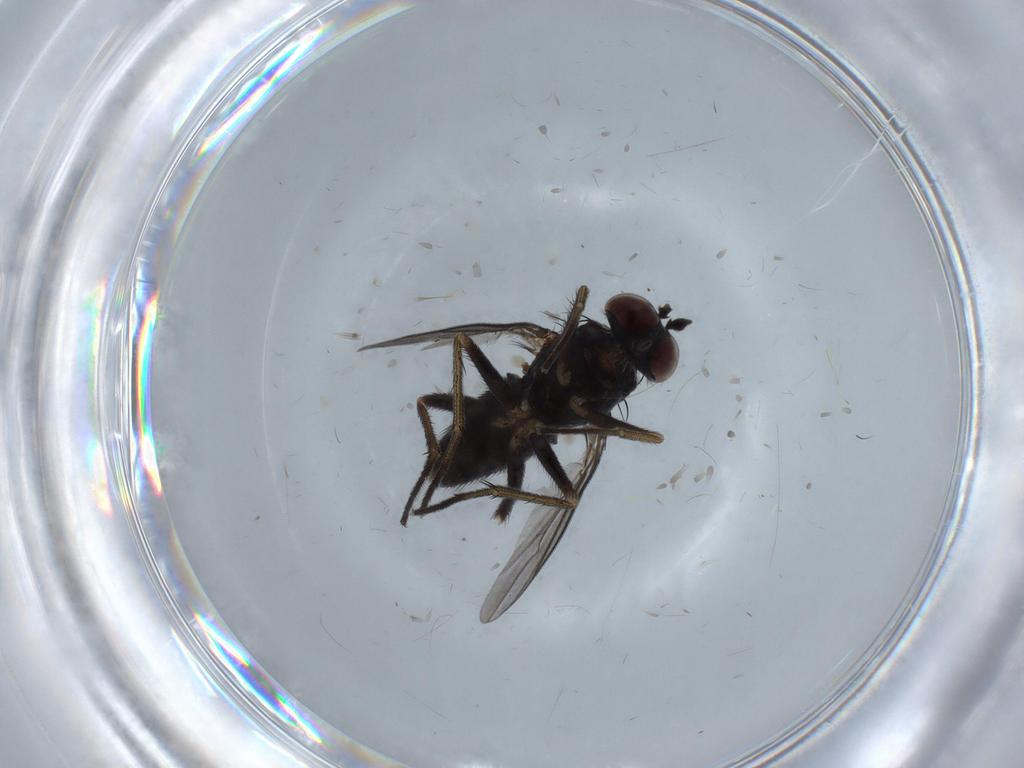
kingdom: Animalia
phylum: Arthropoda
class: Insecta
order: Diptera
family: Dolichopodidae
